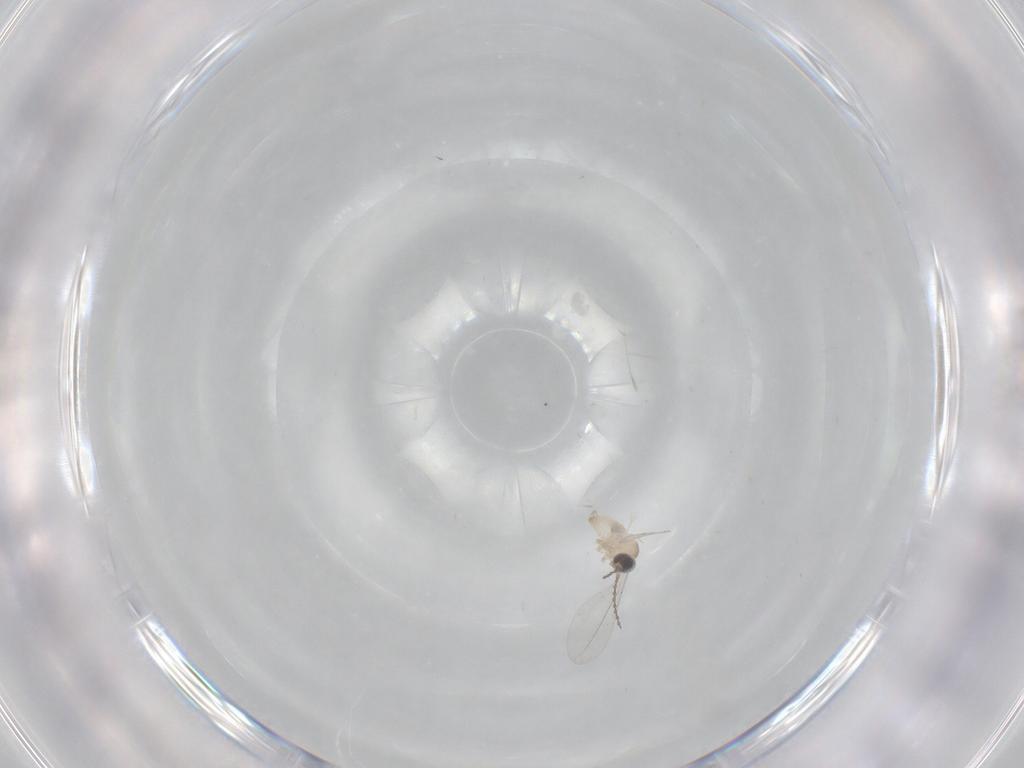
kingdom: Animalia
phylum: Arthropoda
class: Insecta
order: Diptera
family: Limoniidae
